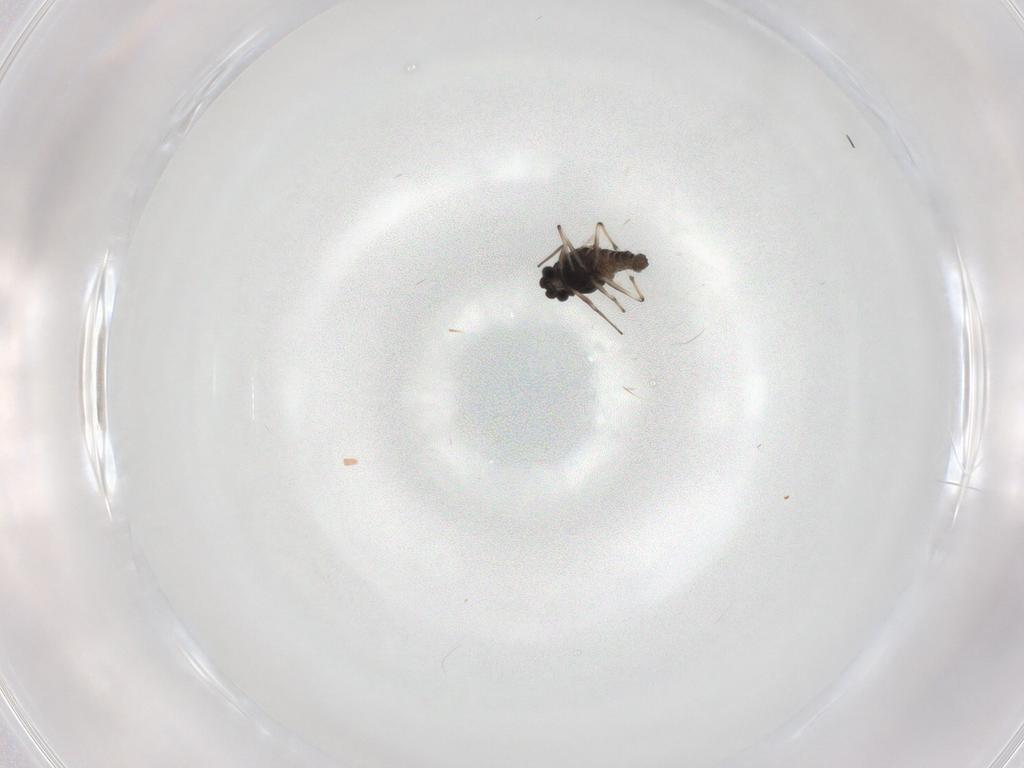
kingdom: Animalia
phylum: Arthropoda
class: Insecta
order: Diptera
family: Chironomidae
